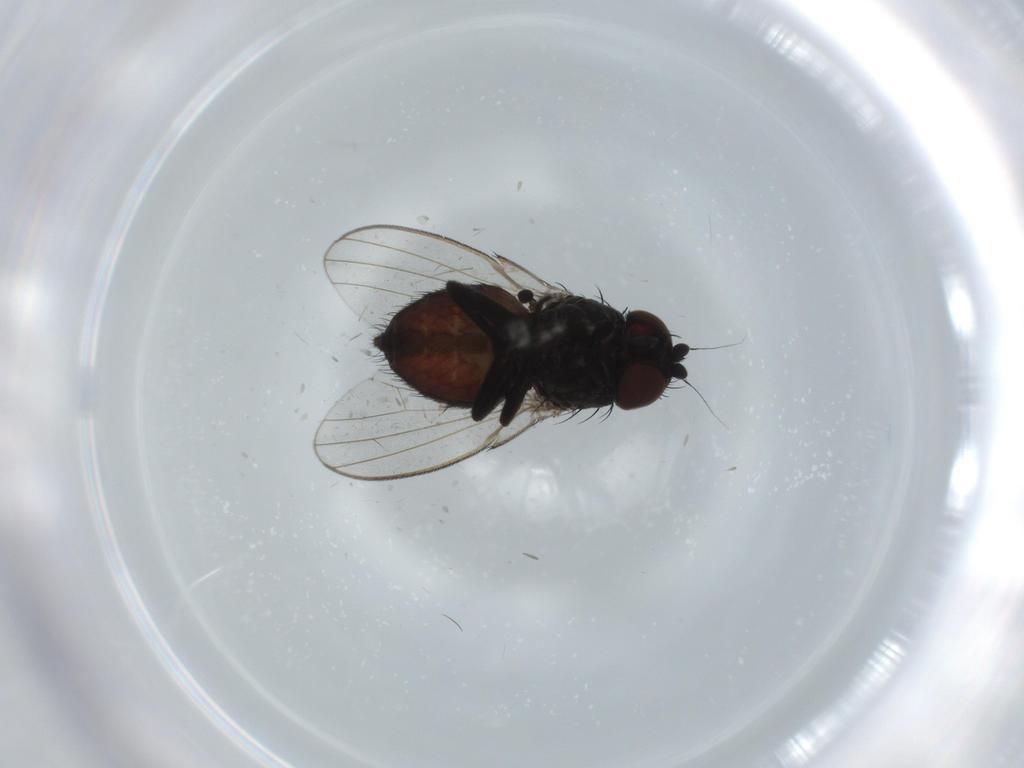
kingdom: Animalia
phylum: Arthropoda
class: Insecta
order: Diptera
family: Milichiidae
